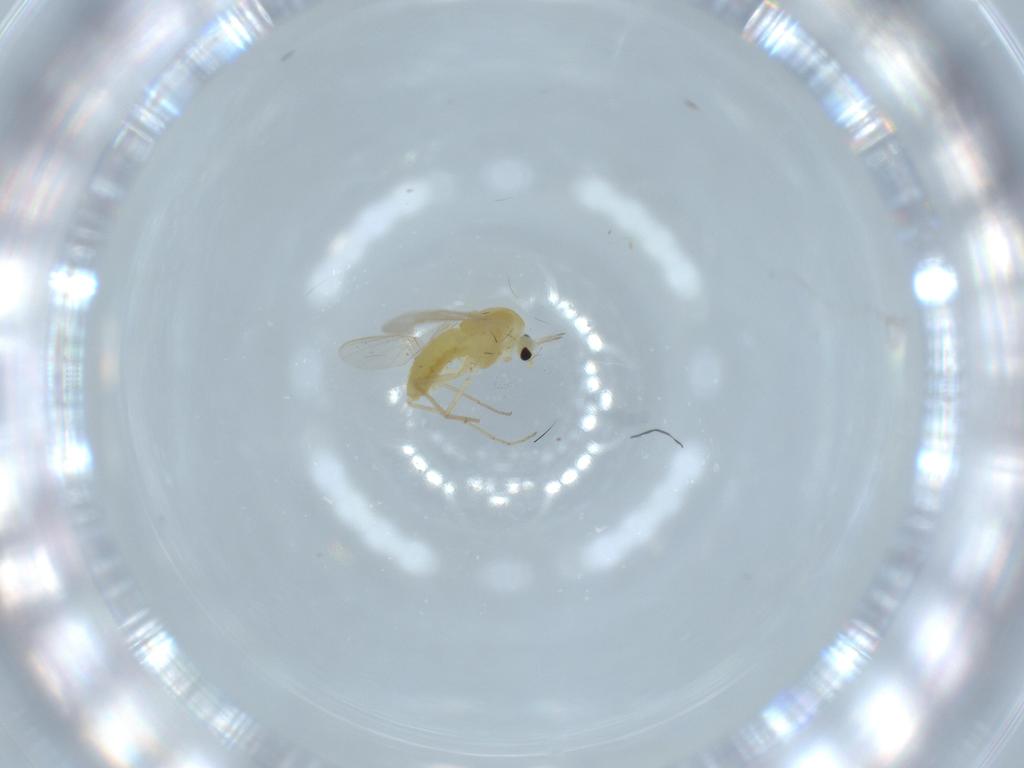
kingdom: Animalia
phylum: Arthropoda
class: Insecta
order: Diptera
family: Chironomidae
